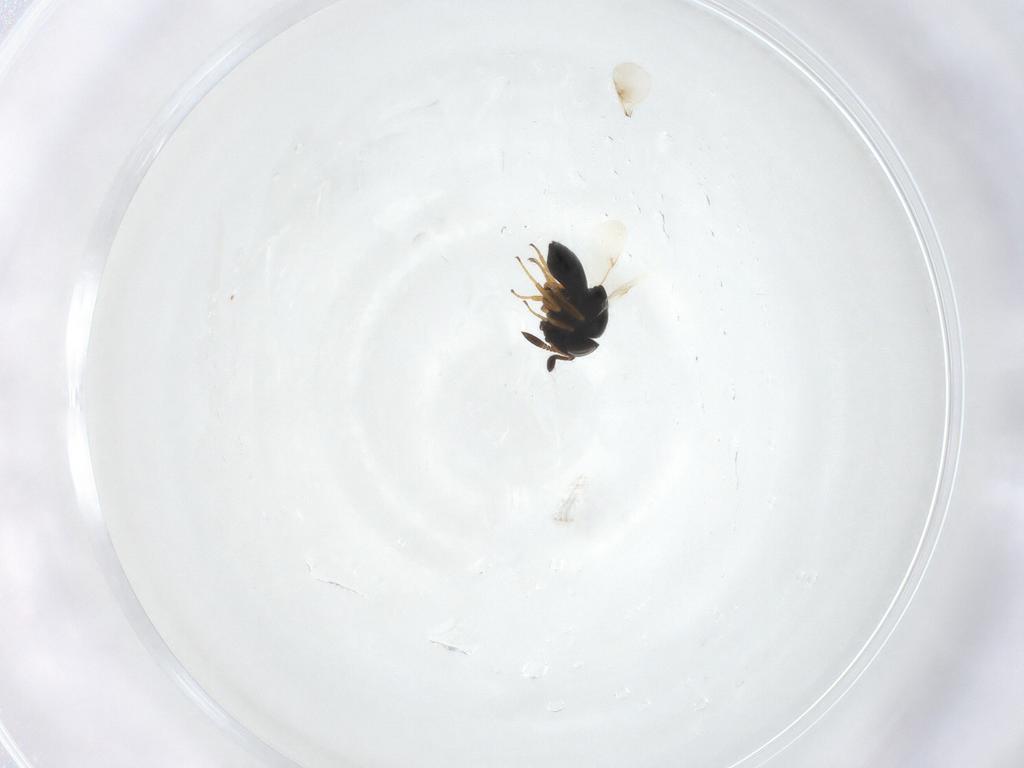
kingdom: Animalia
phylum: Arthropoda
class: Insecta
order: Hymenoptera
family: Scelionidae
